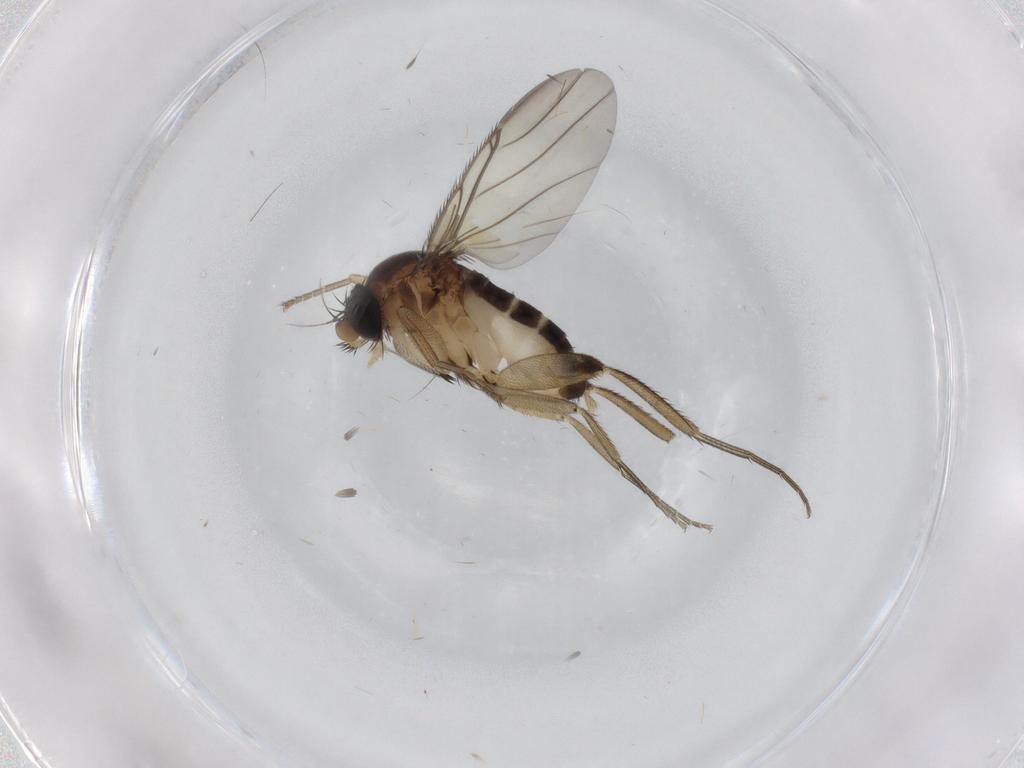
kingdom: Animalia
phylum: Arthropoda
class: Insecta
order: Diptera
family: Phoridae
